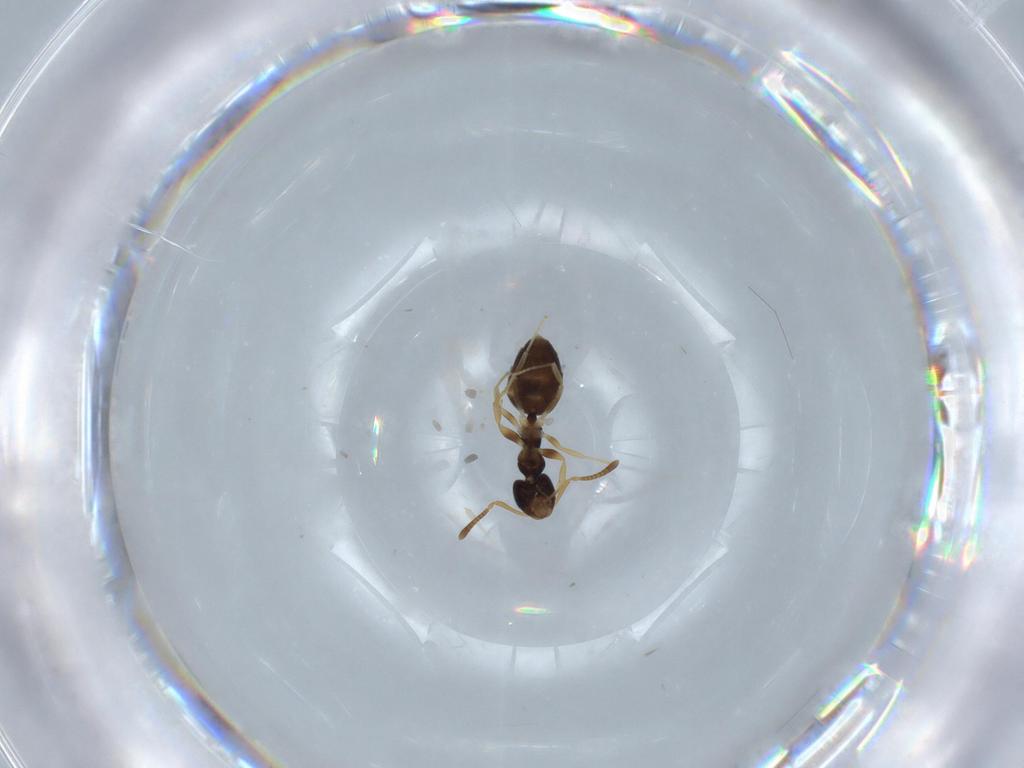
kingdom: Animalia
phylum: Arthropoda
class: Insecta
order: Hymenoptera
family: Formicidae
